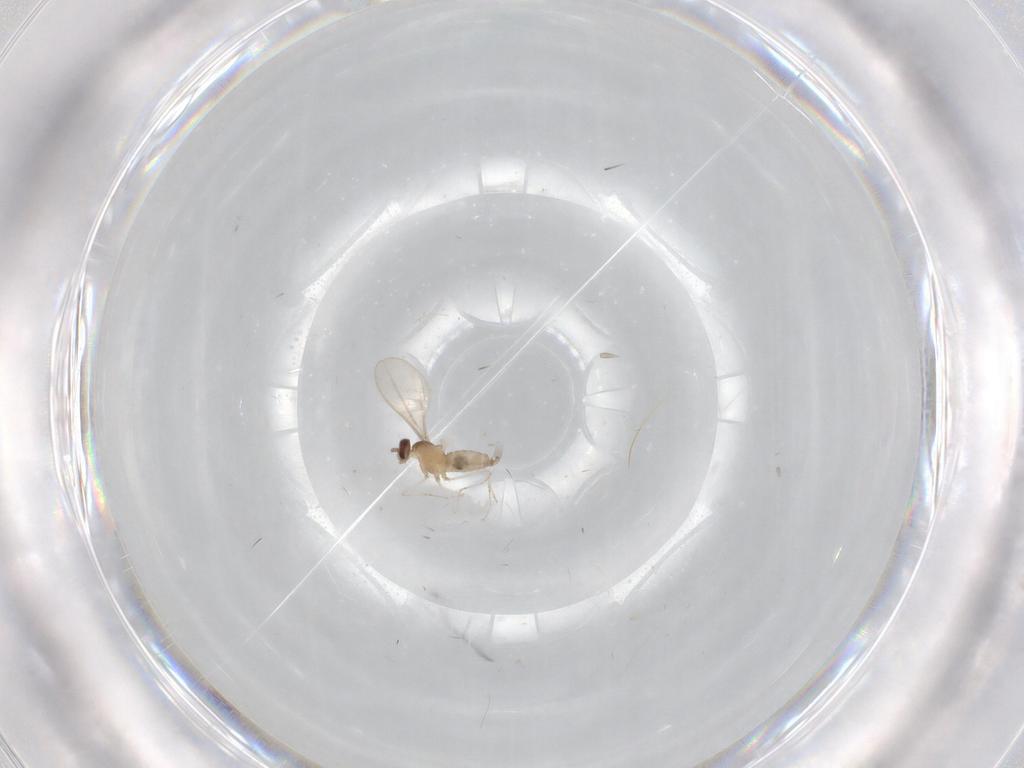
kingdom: Animalia
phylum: Arthropoda
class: Insecta
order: Diptera
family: Cecidomyiidae
